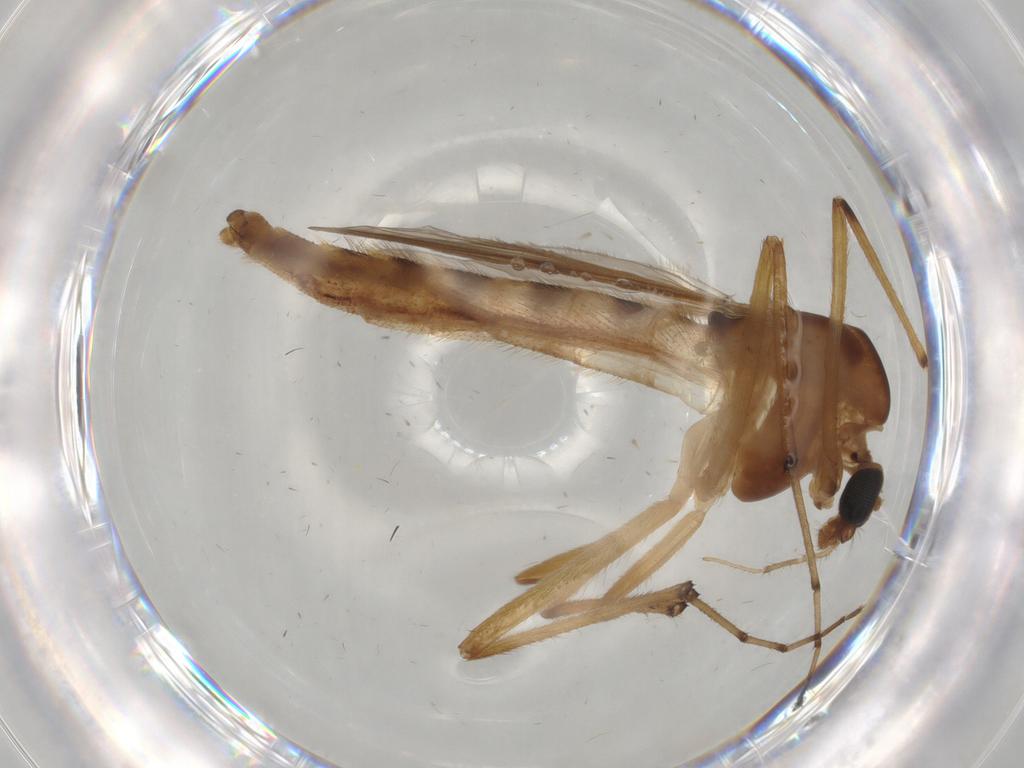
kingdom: Animalia
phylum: Arthropoda
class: Insecta
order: Diptera
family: Chironomidae
